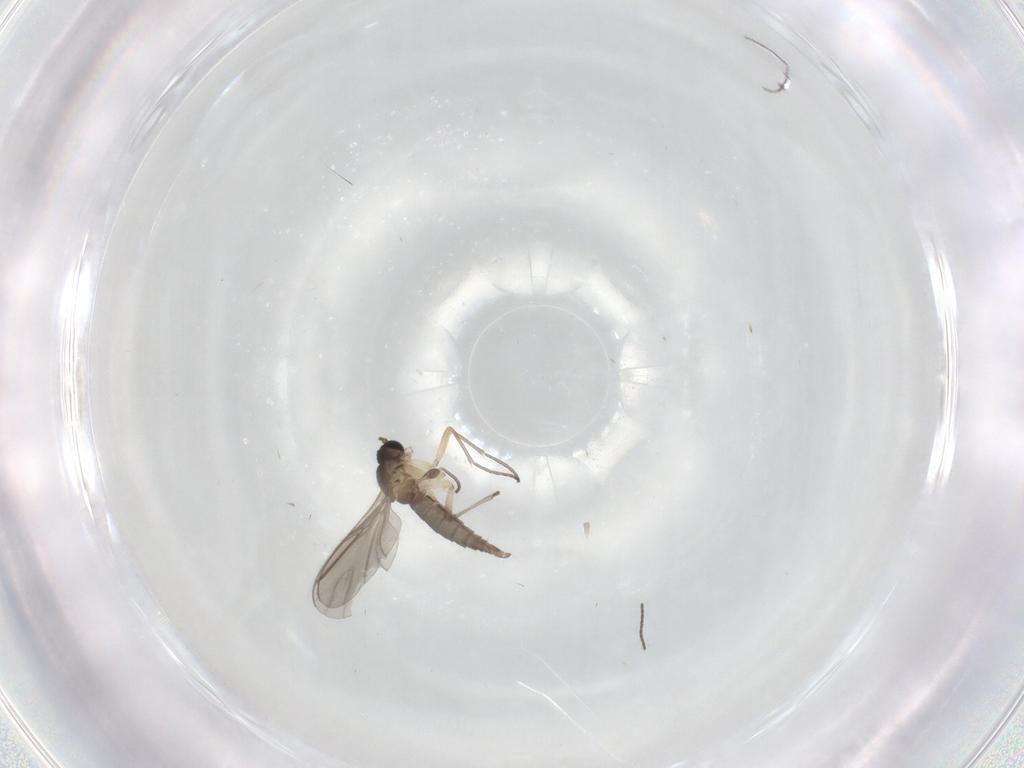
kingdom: Animalia
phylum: Arthropoda
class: Insecta
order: Diptera
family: Sciaridae
